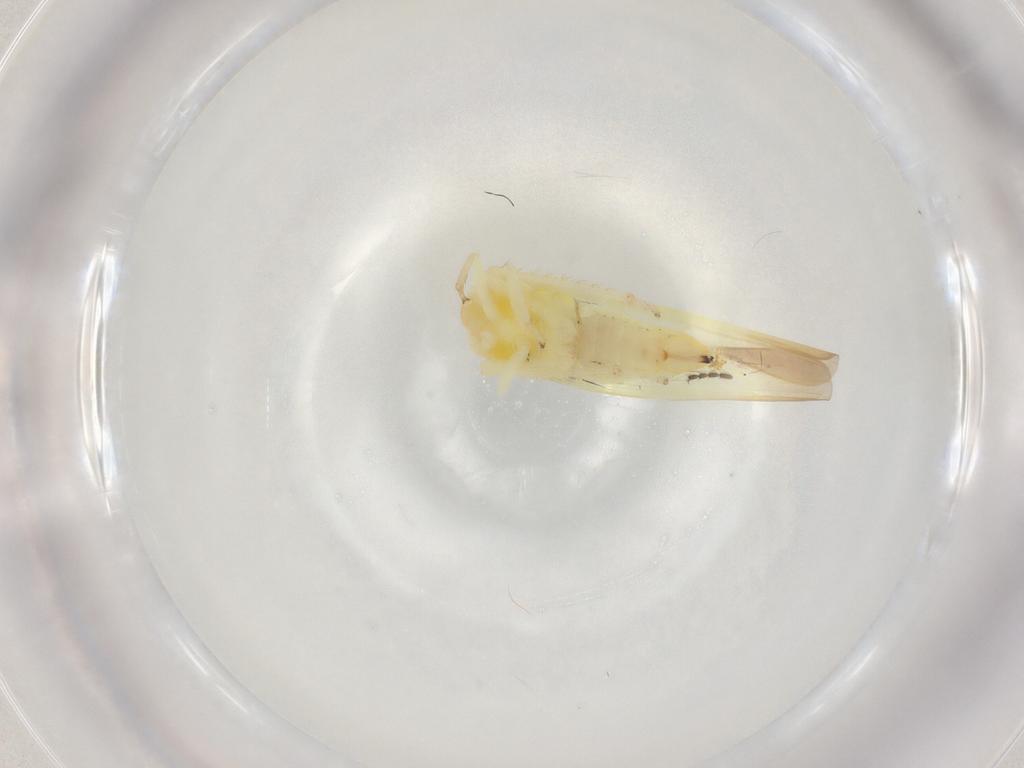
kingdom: Animalia
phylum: Arthropoda
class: Insecta
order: Hemiptera
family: Cicadellidae
